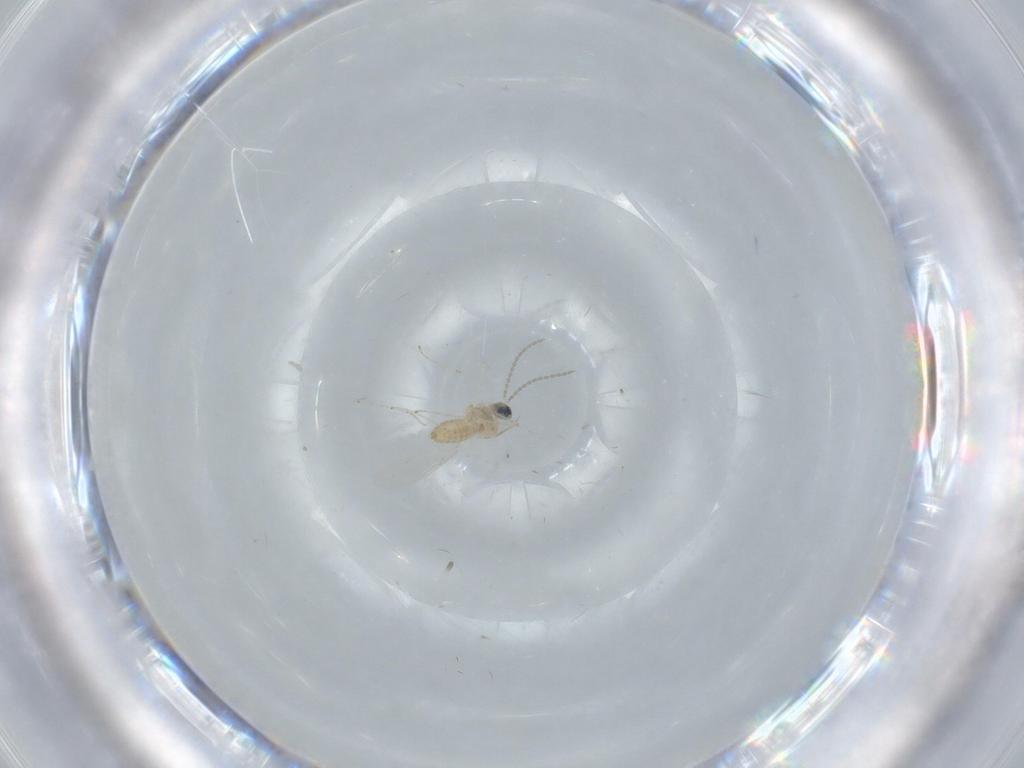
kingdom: Animalia
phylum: Arthropoda
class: Insecta
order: Diptera
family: Cecidomyiidae
